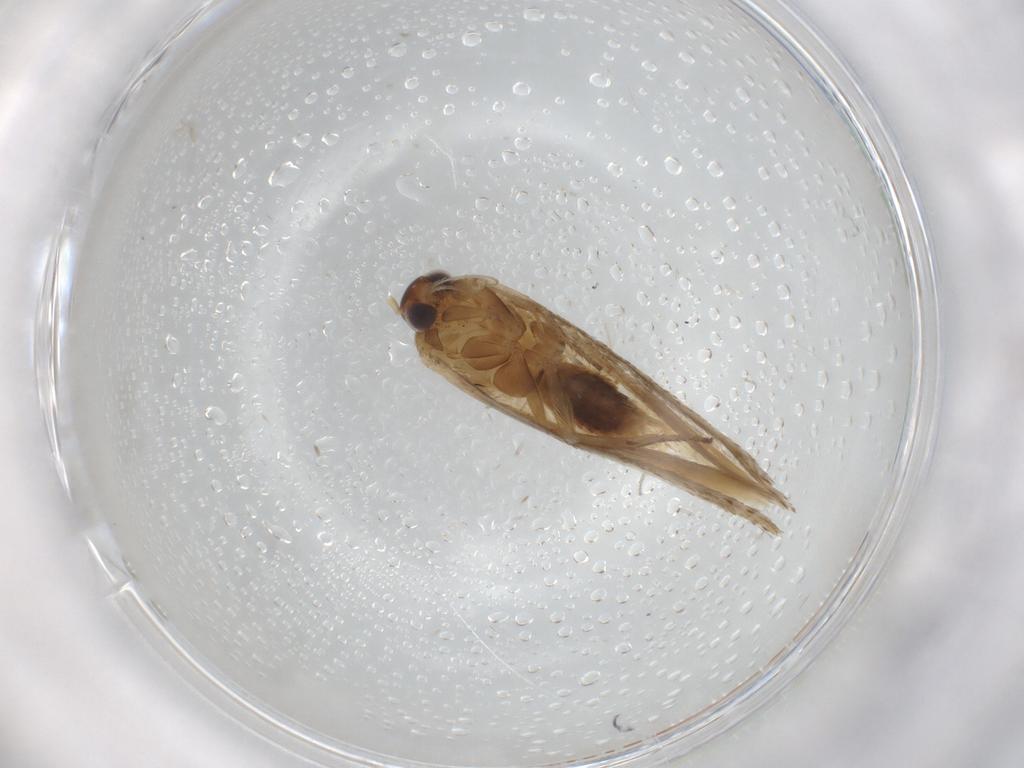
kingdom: Animalia
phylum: Arthropoda
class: Insecta
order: Lepidoptera
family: Gelechiidae
